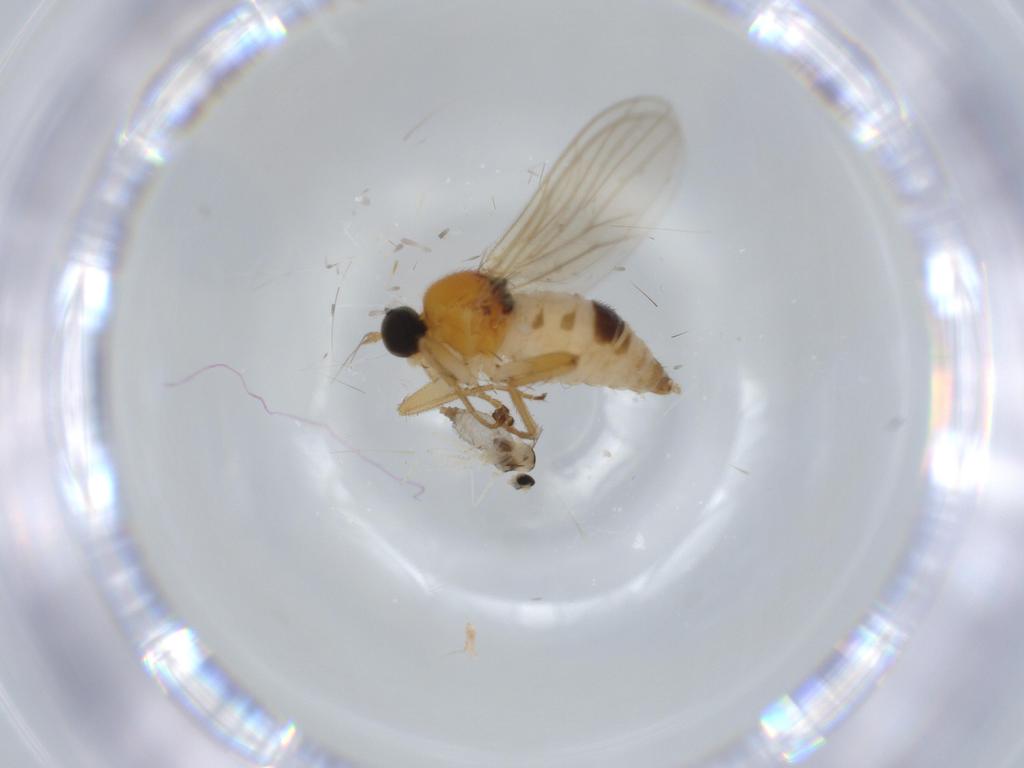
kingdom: Animalia
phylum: Arthropoda
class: Insecta
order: Diptera
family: Hybotidae
